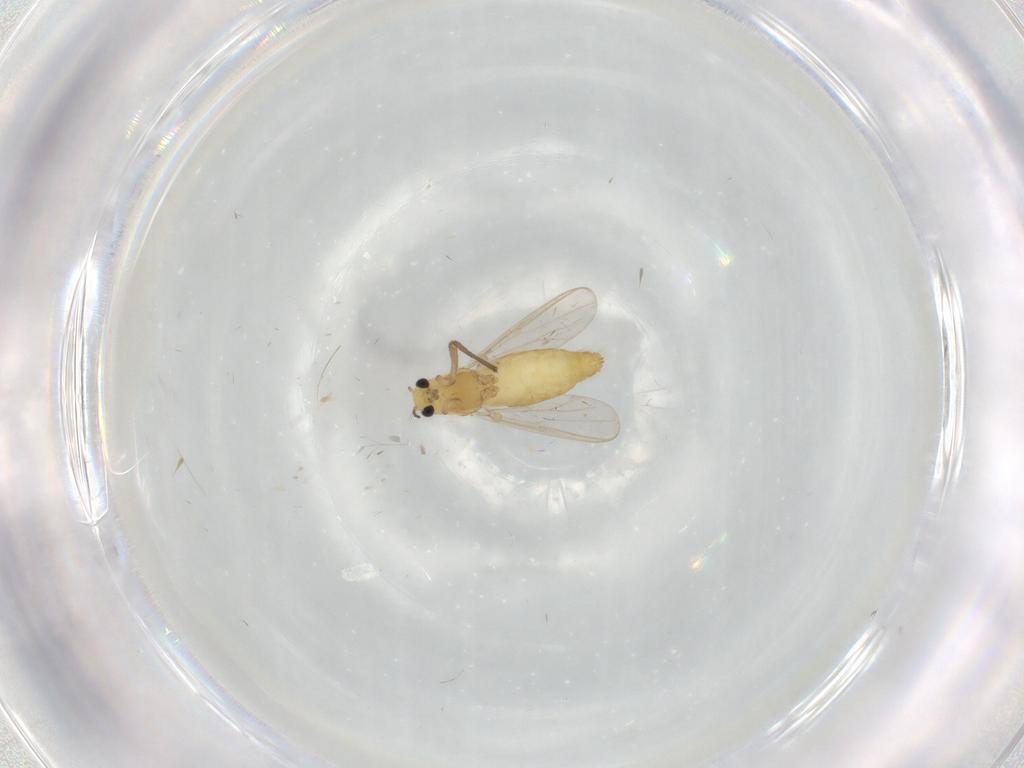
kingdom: Animalia
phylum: Arthropoda
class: Insecta
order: Diptera
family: Chironomidae
